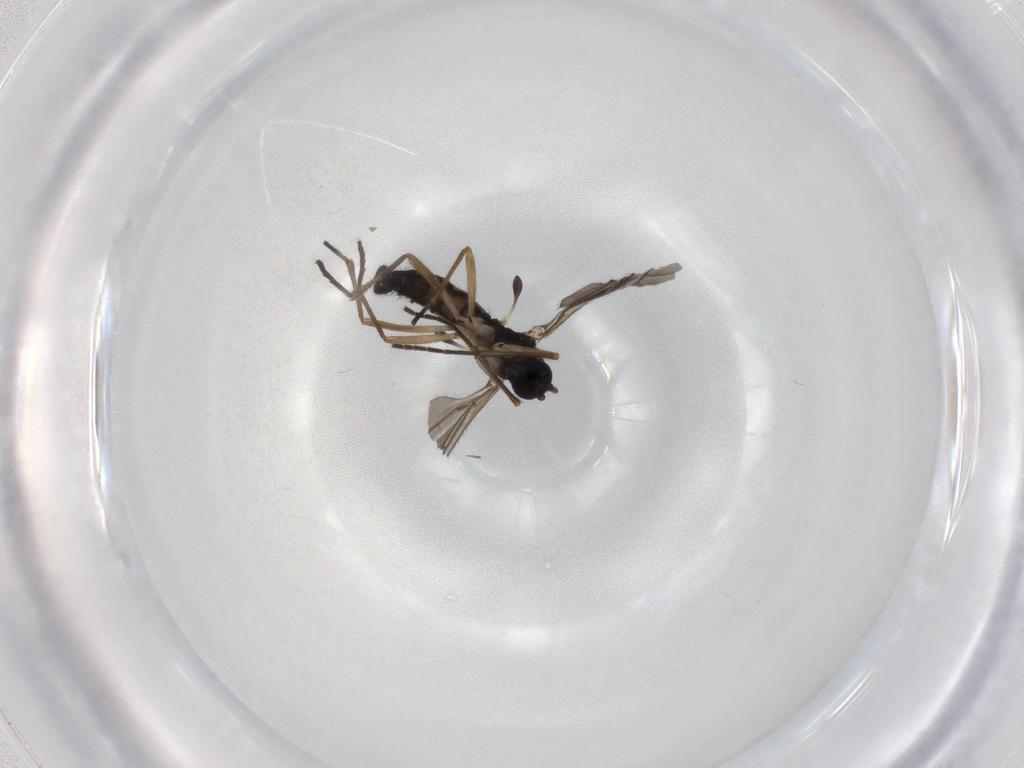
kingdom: Animalia
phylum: Arthropoda
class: Insecta
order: Diptera
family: Sciaridae
